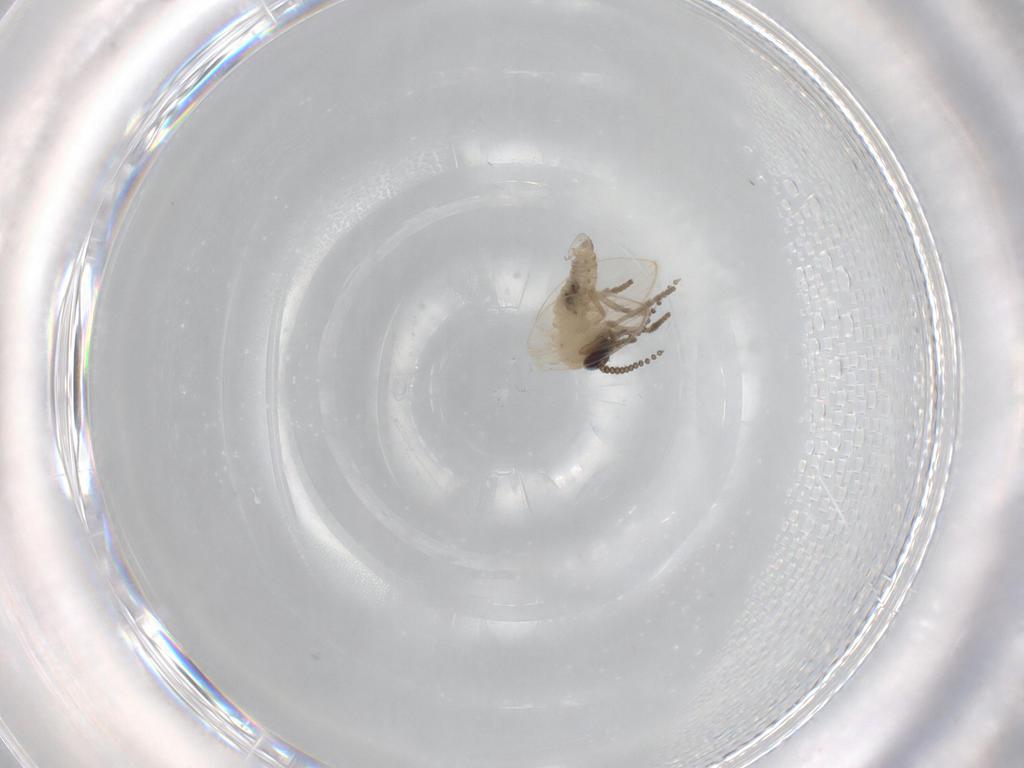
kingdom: Animalia
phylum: Arthropoda
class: Insecta
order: Diptera
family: Psychodidae
